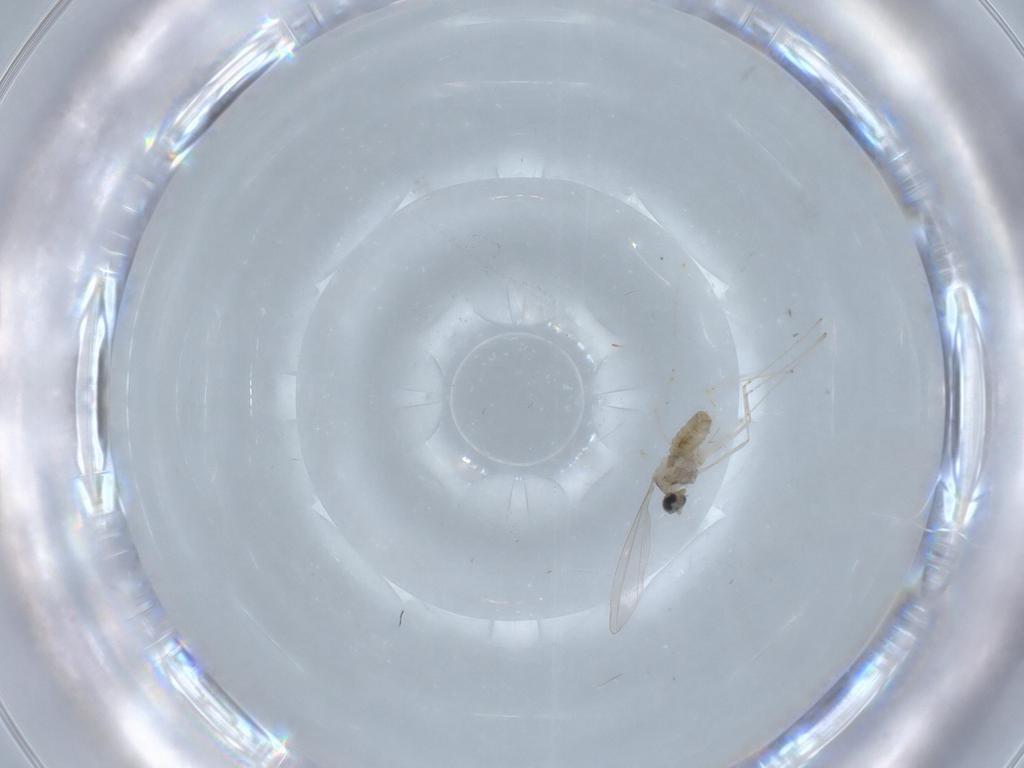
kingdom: Animalia
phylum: Arthropoda
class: Insecta
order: Diptera
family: Cecidomyiidae
